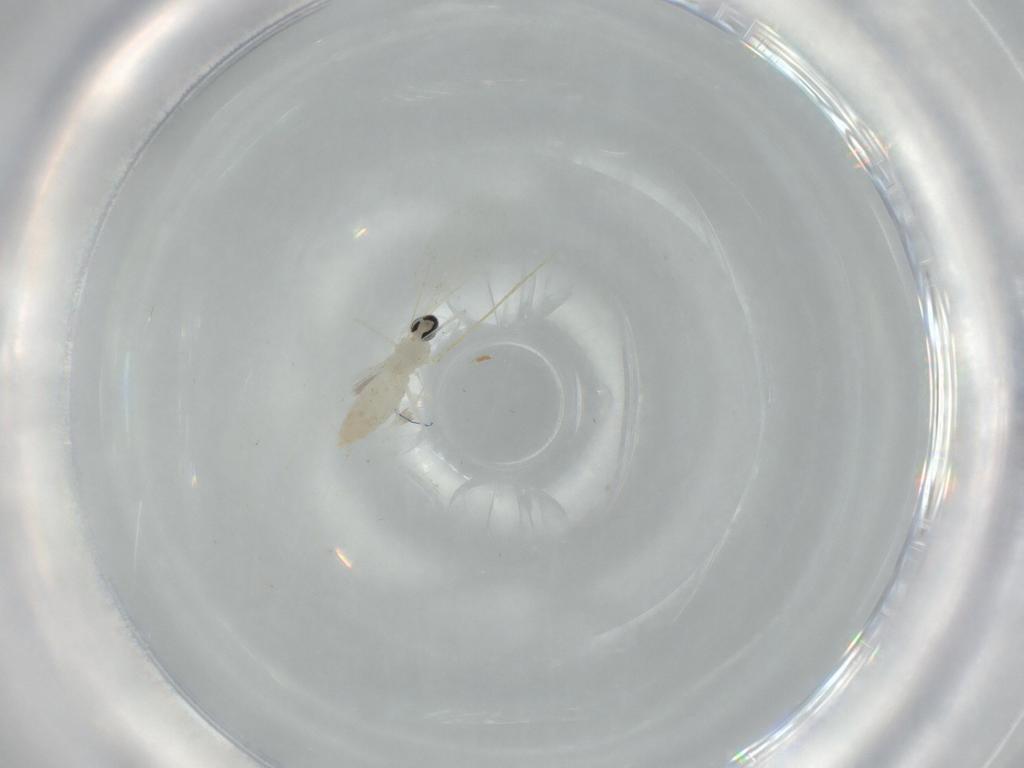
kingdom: Animalia
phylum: Arthropoda
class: Insecta
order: Diptera
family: Cecidomyiidae
